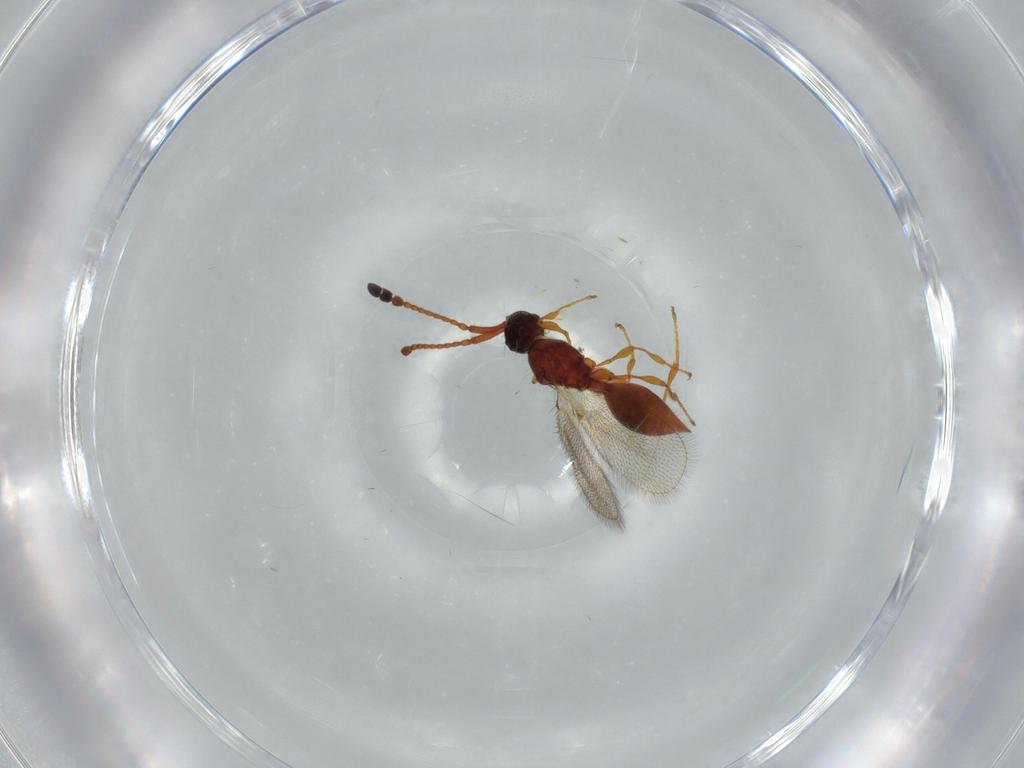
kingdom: Animalia
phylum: Arthropoda
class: Insecta
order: Hymenoptera
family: Diapriidae
